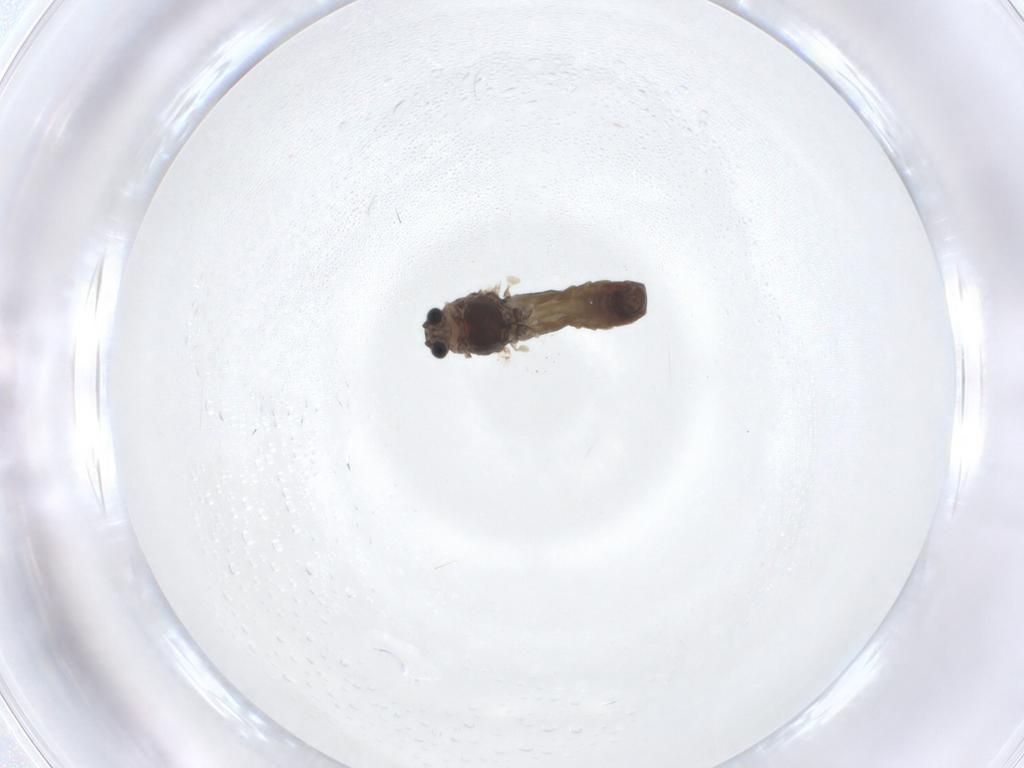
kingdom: Animalia
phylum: Arthropoda
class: Insecta
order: Diptera
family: Chironomidae
